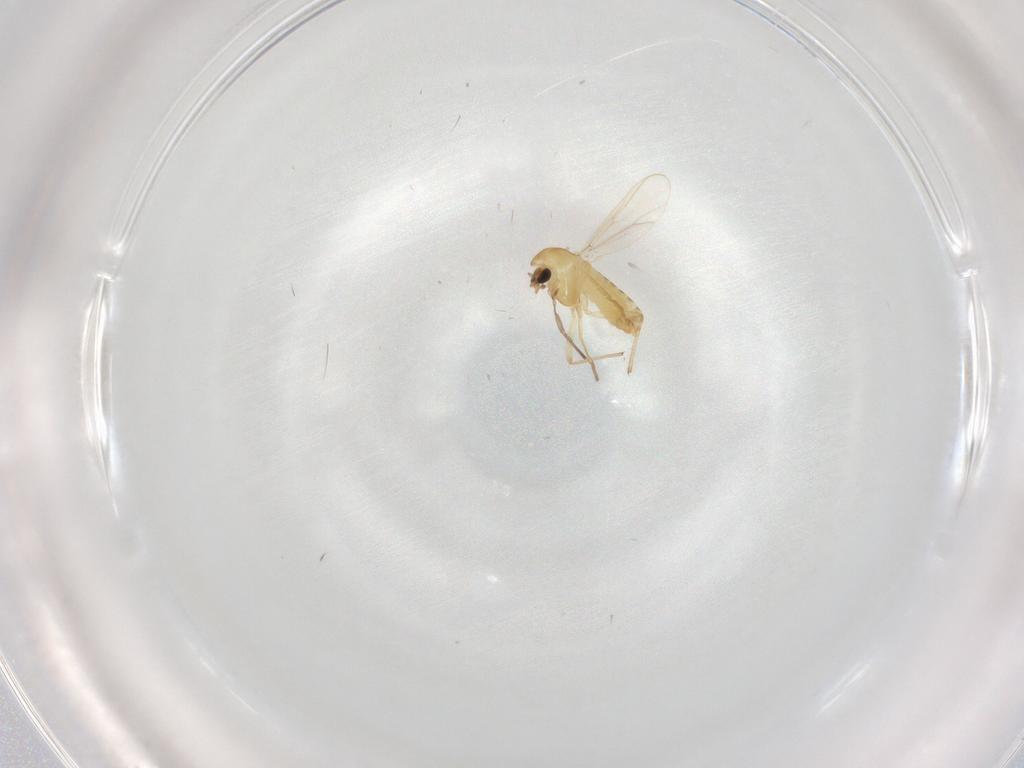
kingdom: Animalia
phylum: Arthropoda
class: Insecta
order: Diptera
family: Chironomidae
